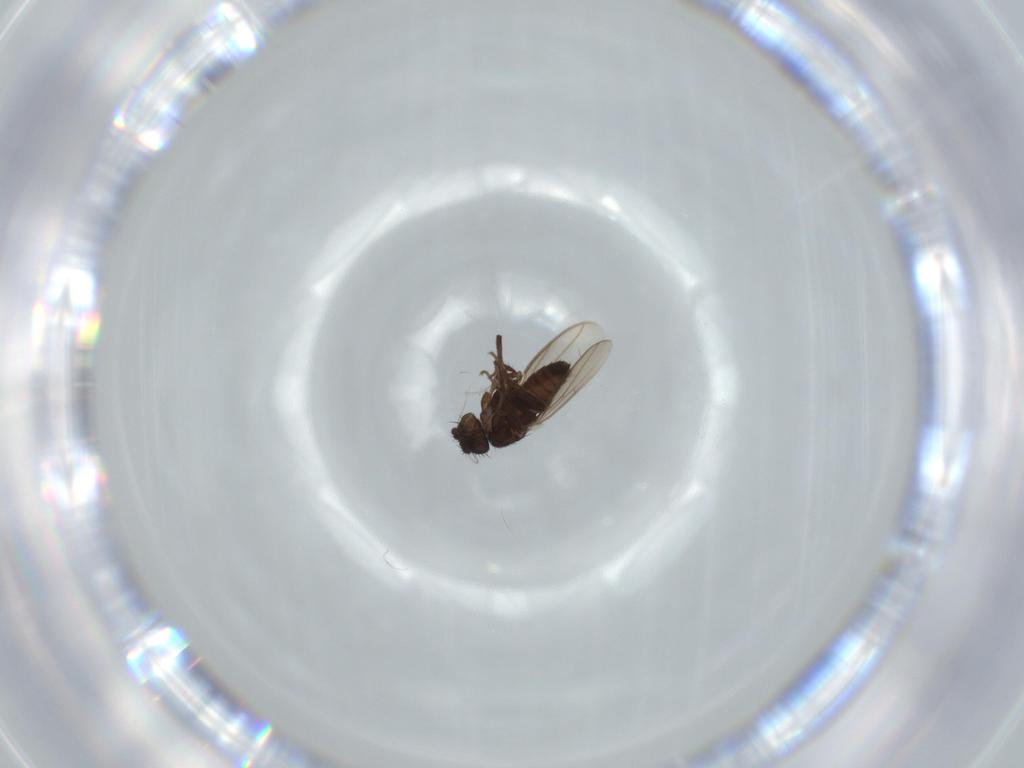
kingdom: Animalia
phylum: Arthropoda
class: Insecta
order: Diptera
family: Sphaeroceridae
